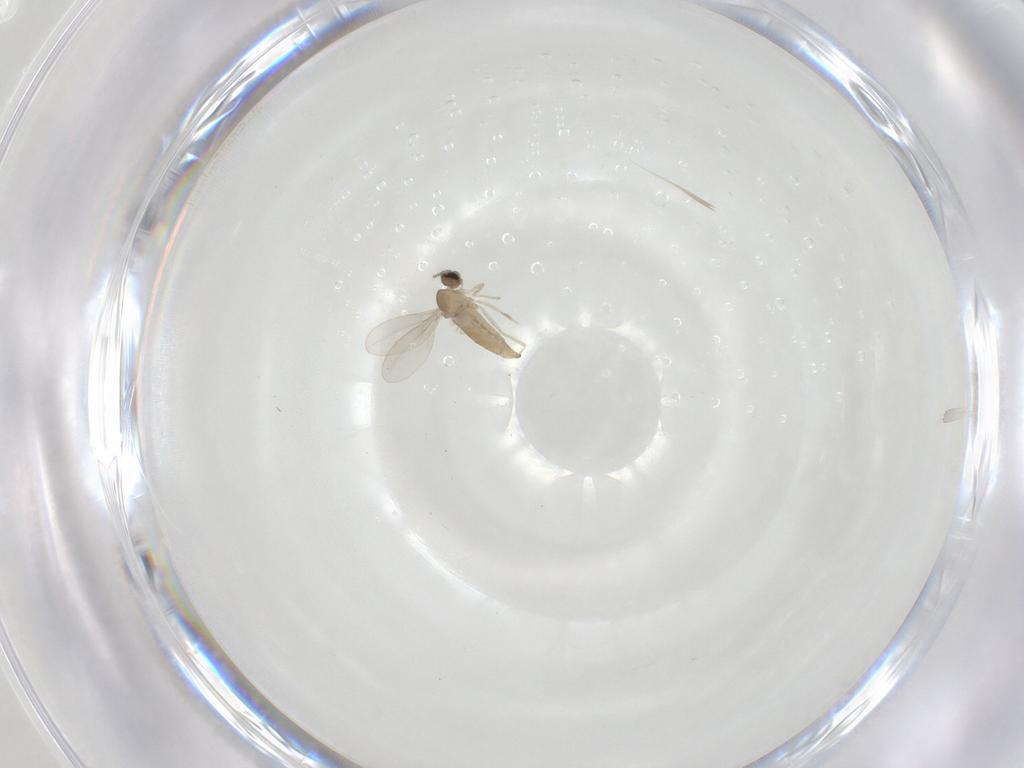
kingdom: Animalia
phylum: Arthropoda
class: Insecta
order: Diptera
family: Cecidomyiidae
